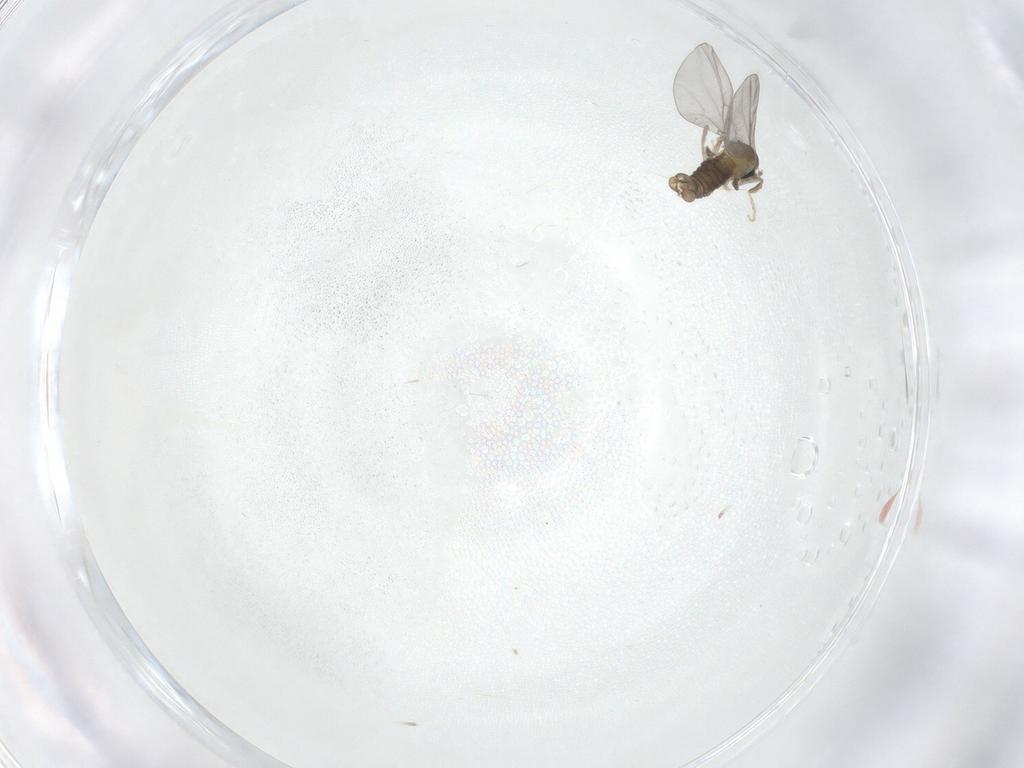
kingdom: Animalia
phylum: Arthropoda
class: Insecta
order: Diptera
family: Cecidomyiidae
